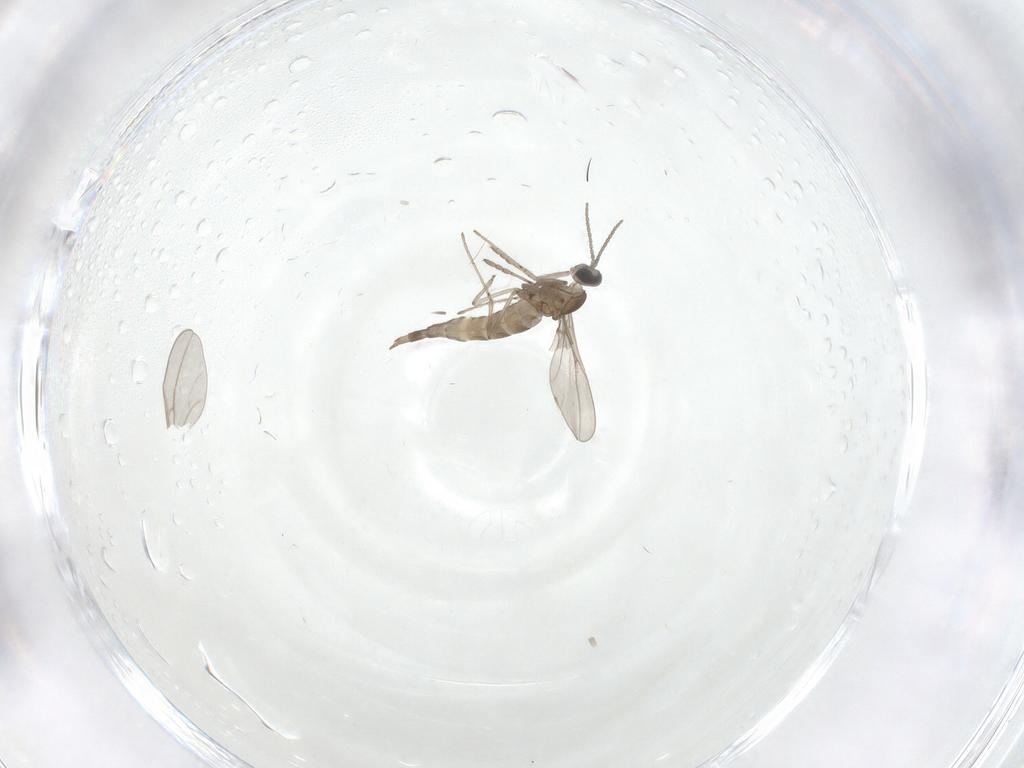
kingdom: Animalia
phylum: Arthropoda
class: Insecta
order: Diptera
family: Cecidomyiidae
